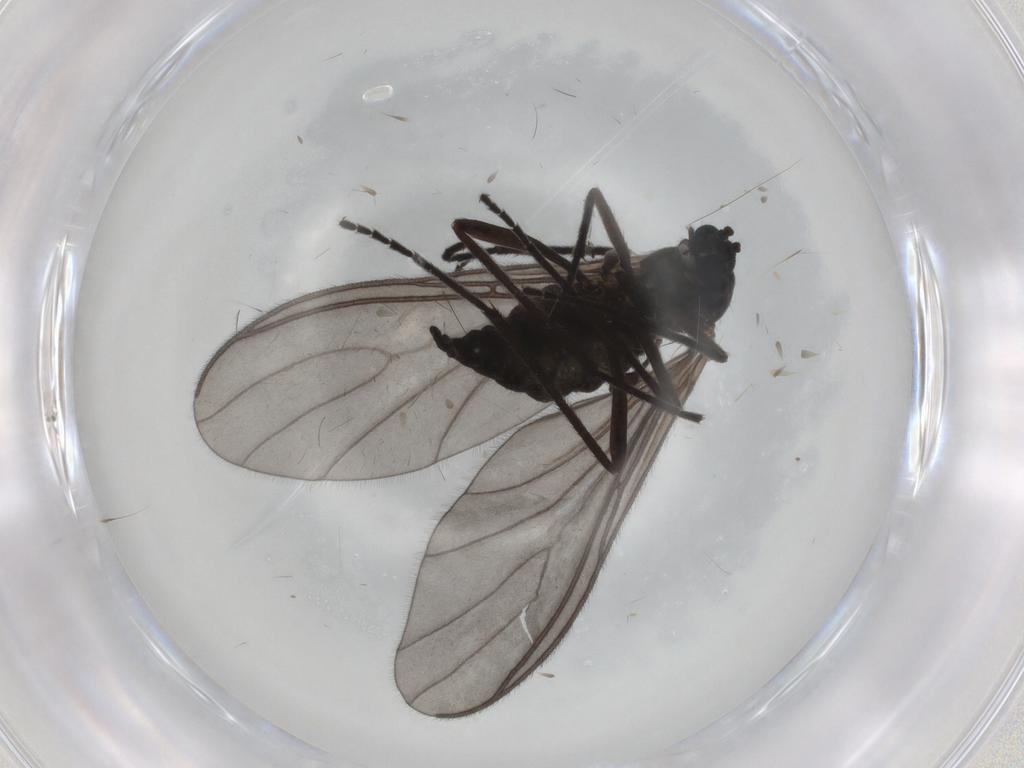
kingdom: Animalia
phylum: Arthropoda
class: Insecta
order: Diptera
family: Sciaridae
